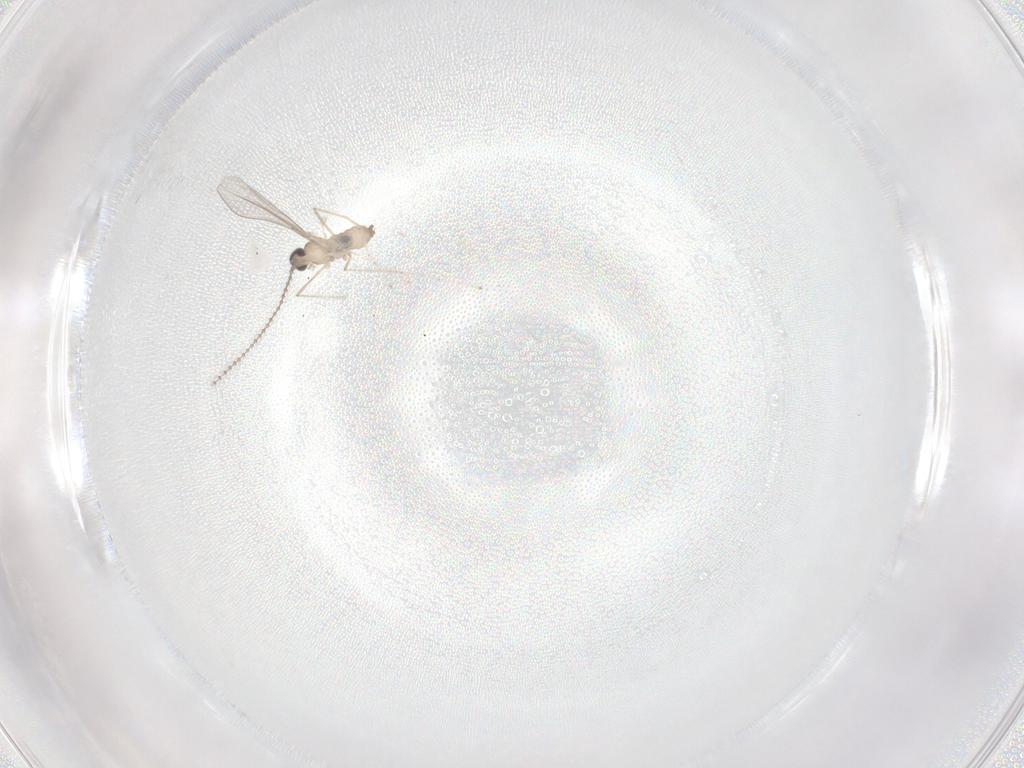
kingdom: Animalia
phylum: Arthropoda
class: Insecta
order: Diptera
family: Cecidomyiidae
